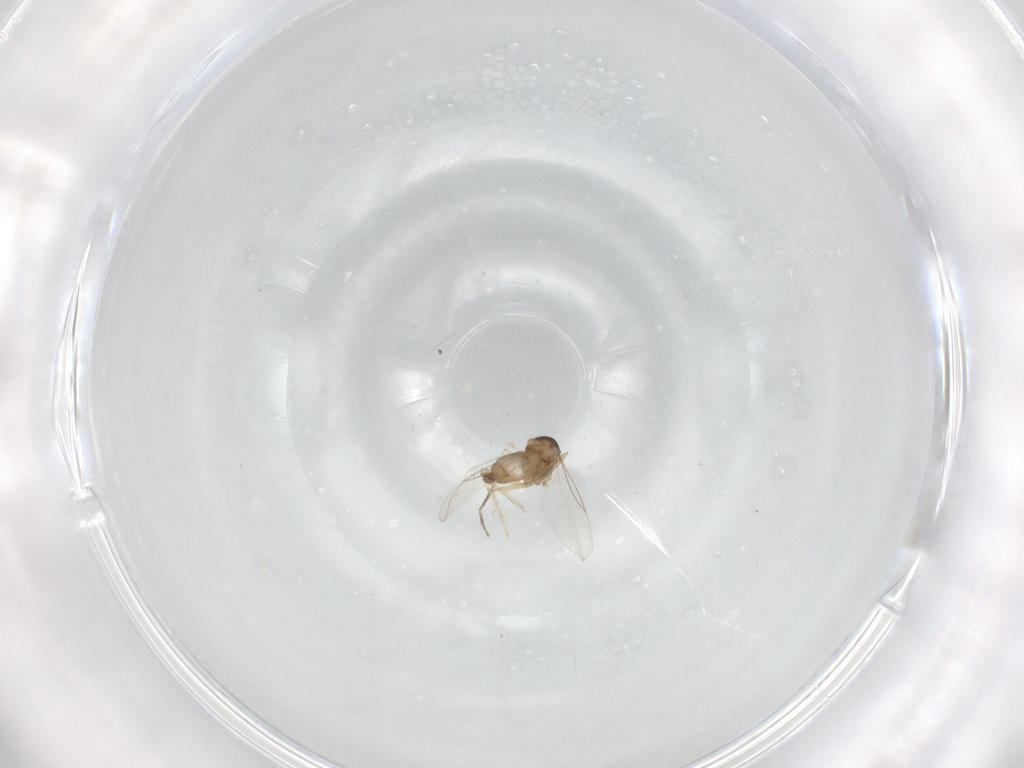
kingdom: Animalia
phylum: Arthropoda
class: Insecta
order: Diptera
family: Cecidomyiidae
